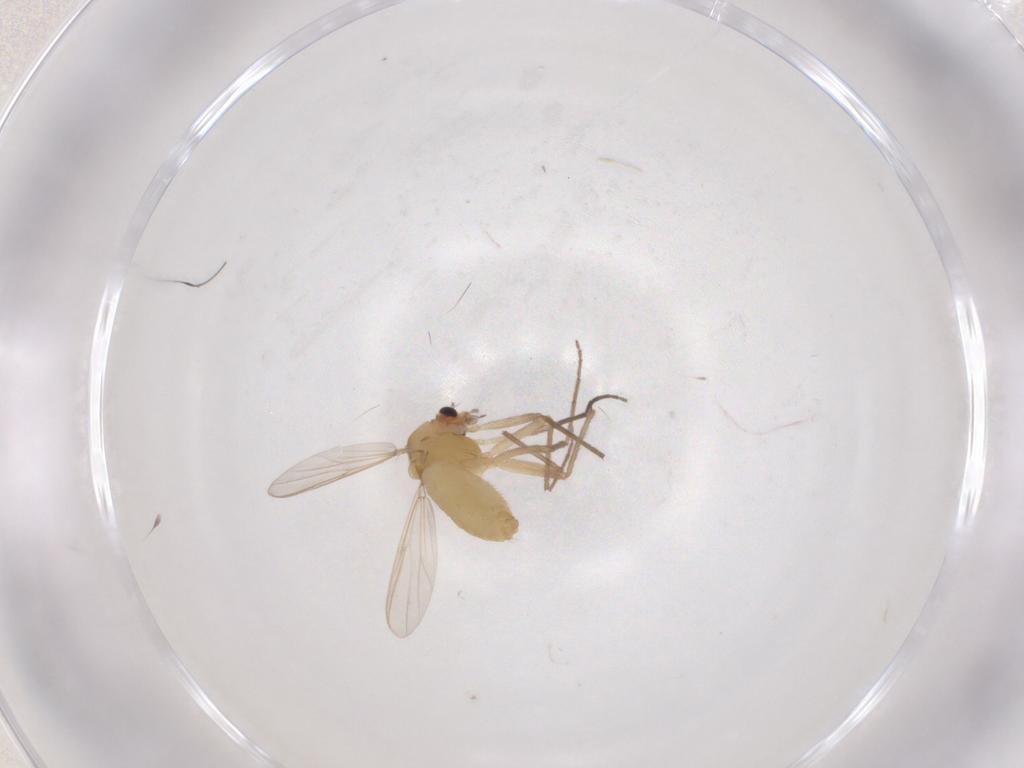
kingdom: Animalia
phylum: Arthropoda
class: Insecta
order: Diptera
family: Chironomidae
